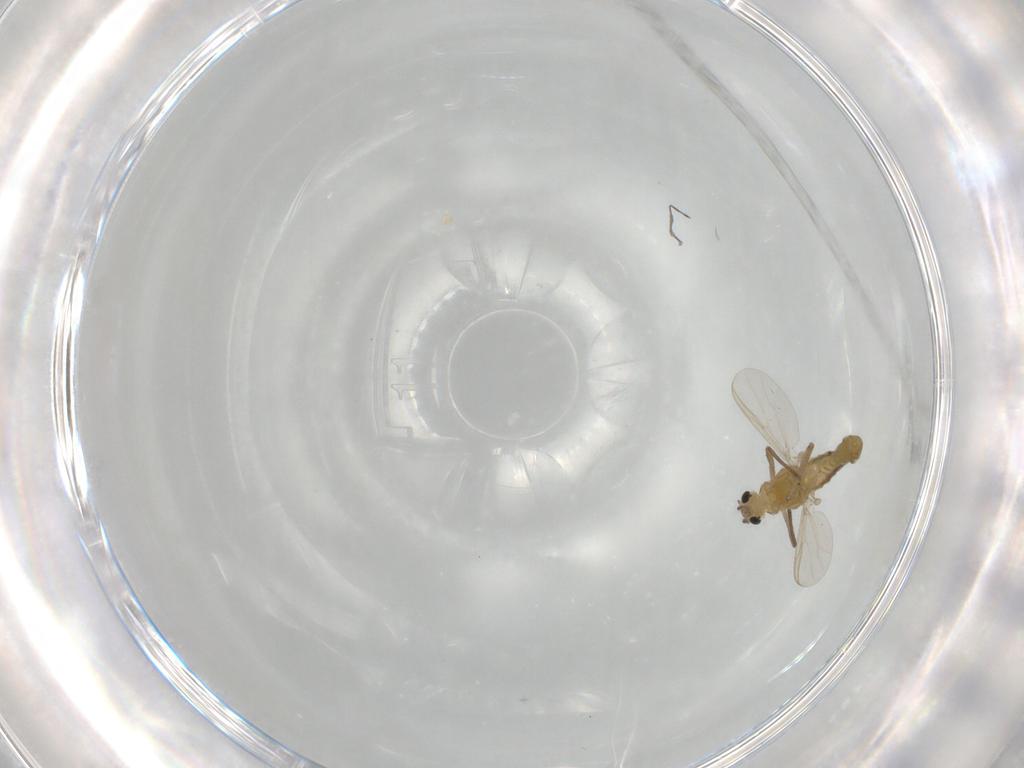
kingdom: Animalia
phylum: Arthropoda
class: Insecta
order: Diptera
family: Chironomidae
